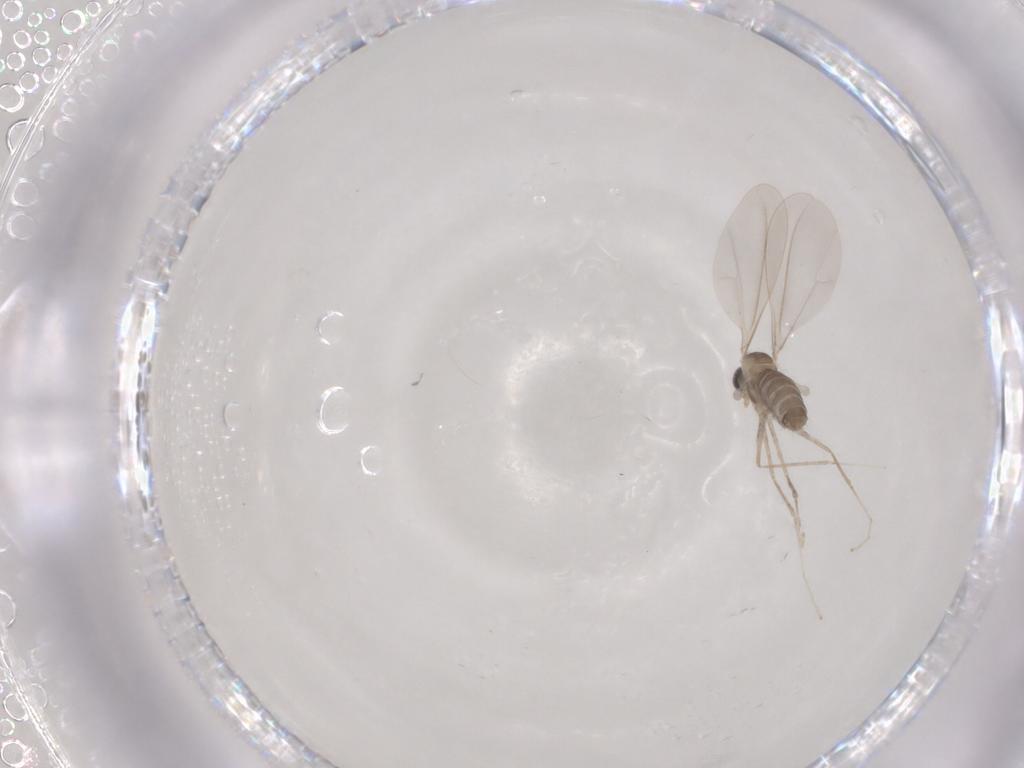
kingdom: Animalia
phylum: Arthropoda
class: Insecta
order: Diptera
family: Cecidomyiidae
